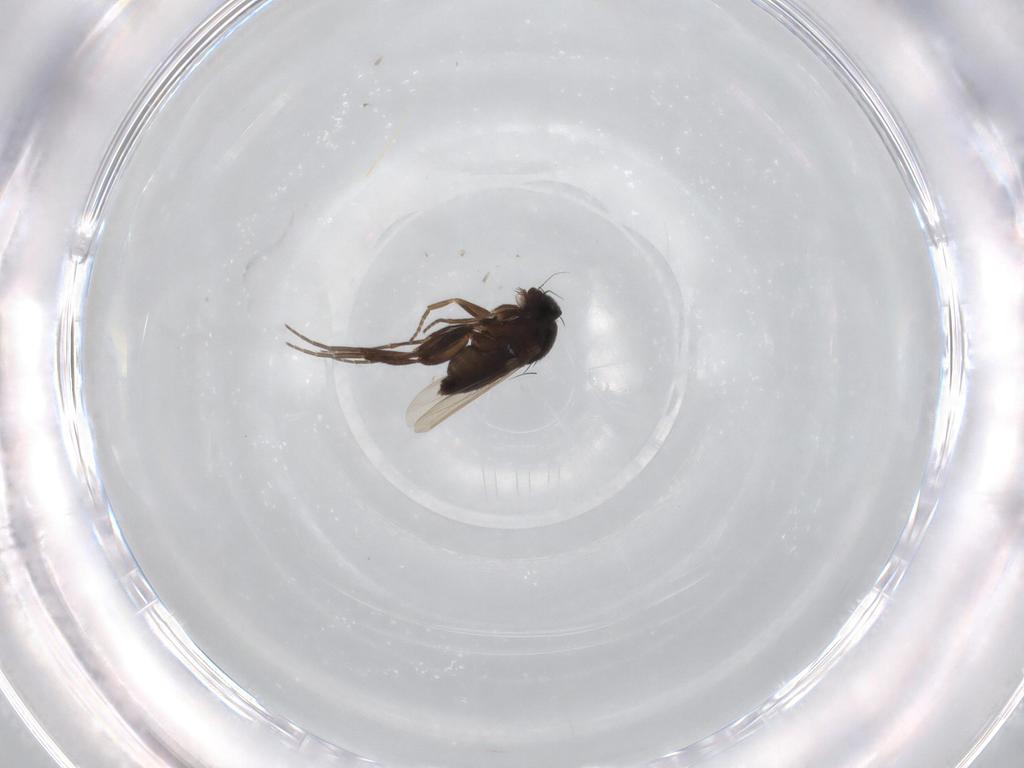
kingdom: Animalia
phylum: Arthropoda
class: Insecta
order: Diptera
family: Phoridae
